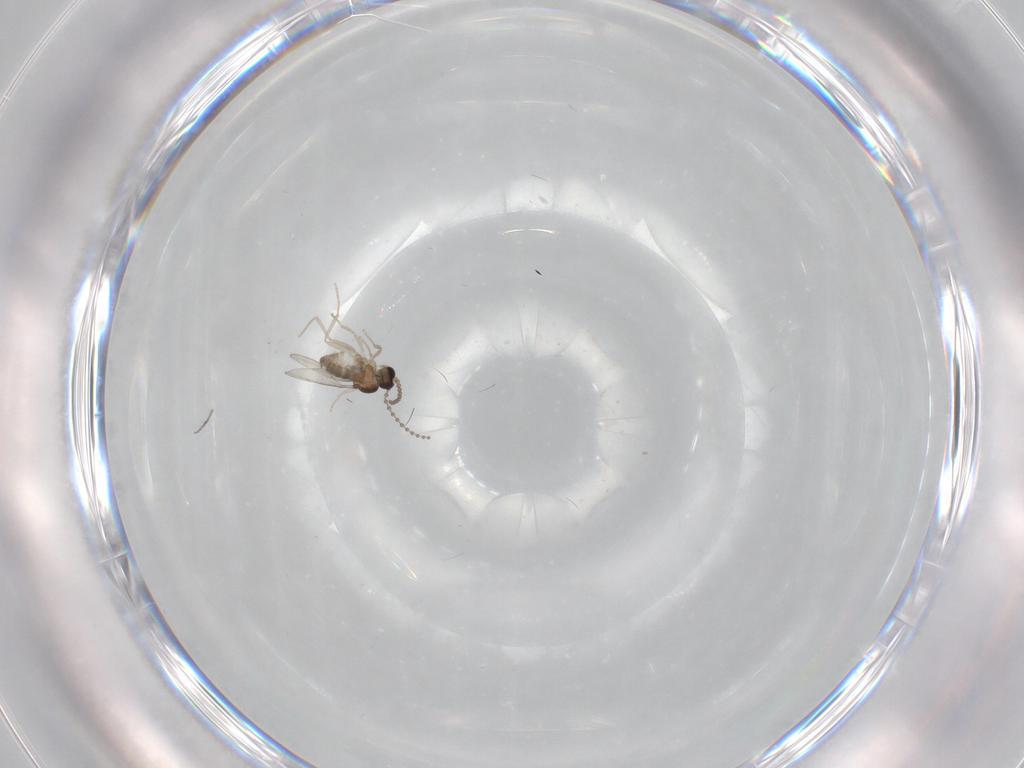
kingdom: Animalia
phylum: Arthropoda
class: Insecta
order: Diptera
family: Cecidomyiidae
